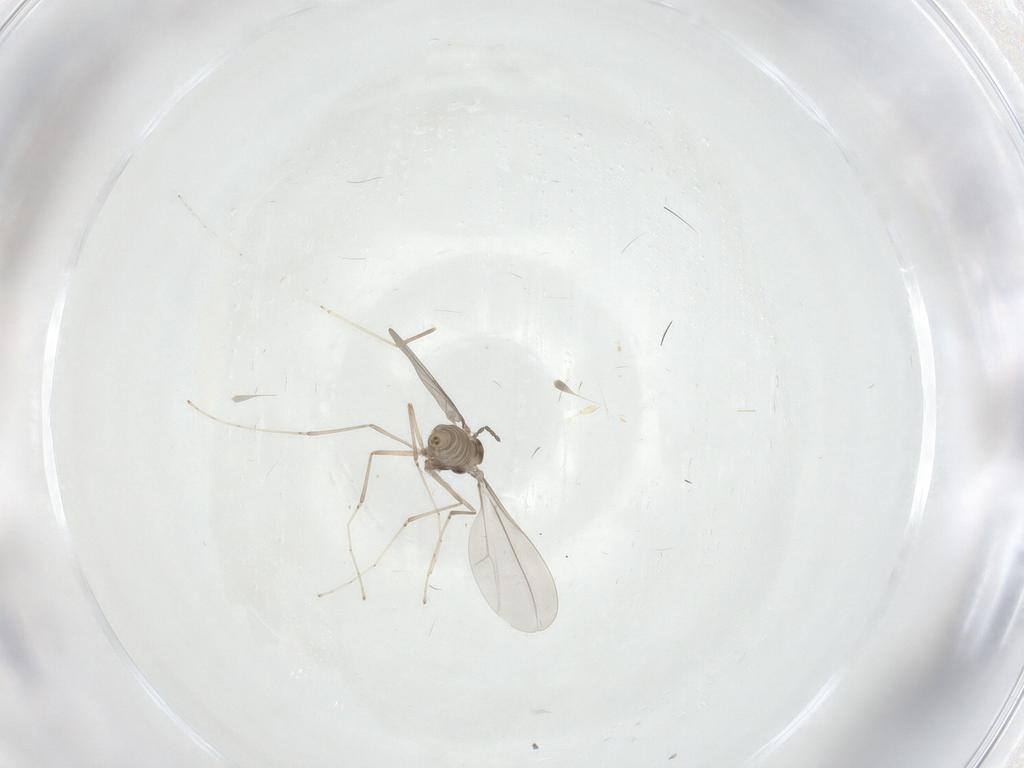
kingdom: Animalia
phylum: Arthropoda
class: Insecta
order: Diptera
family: Cecidomyiidae
